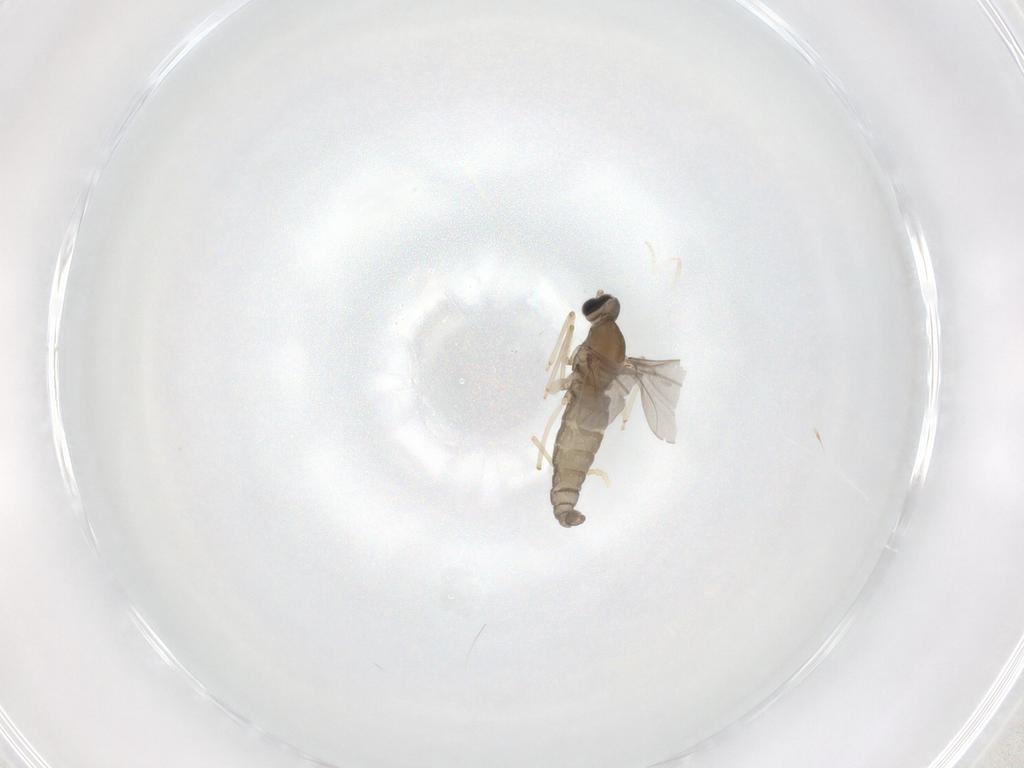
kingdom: Animalia
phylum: Arthropoda
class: Insecta
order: Diptera
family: Cecidomyiidae
